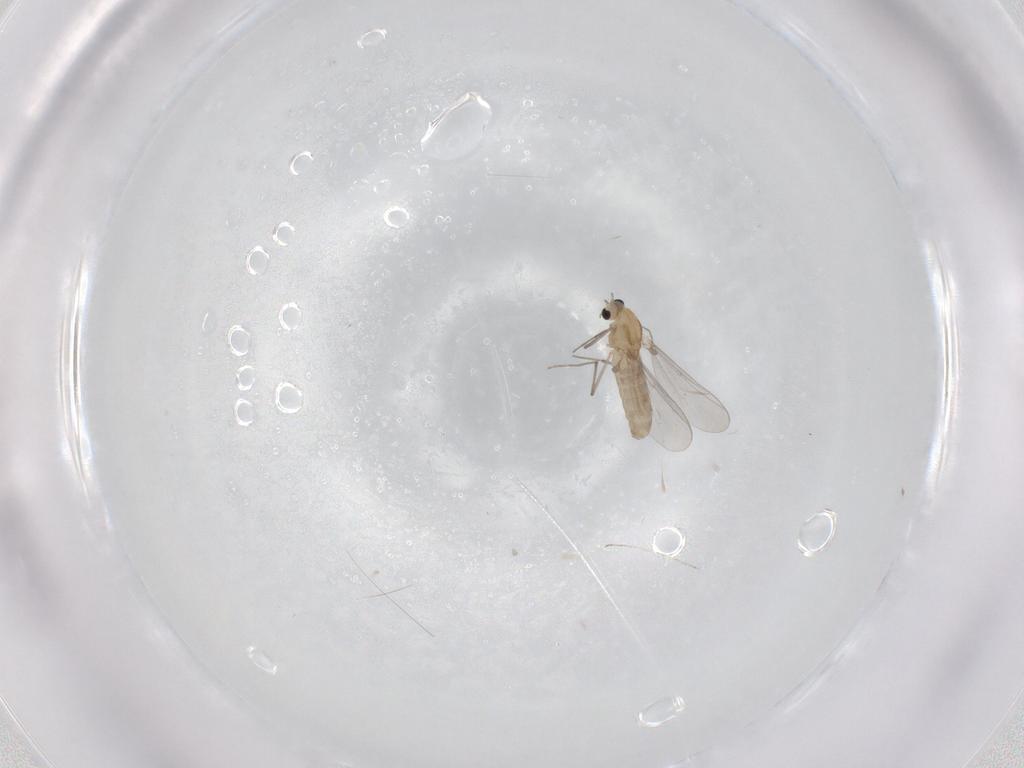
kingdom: Animalia
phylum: Arthropoda
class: Insecta
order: Diptera
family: Chironomidae
